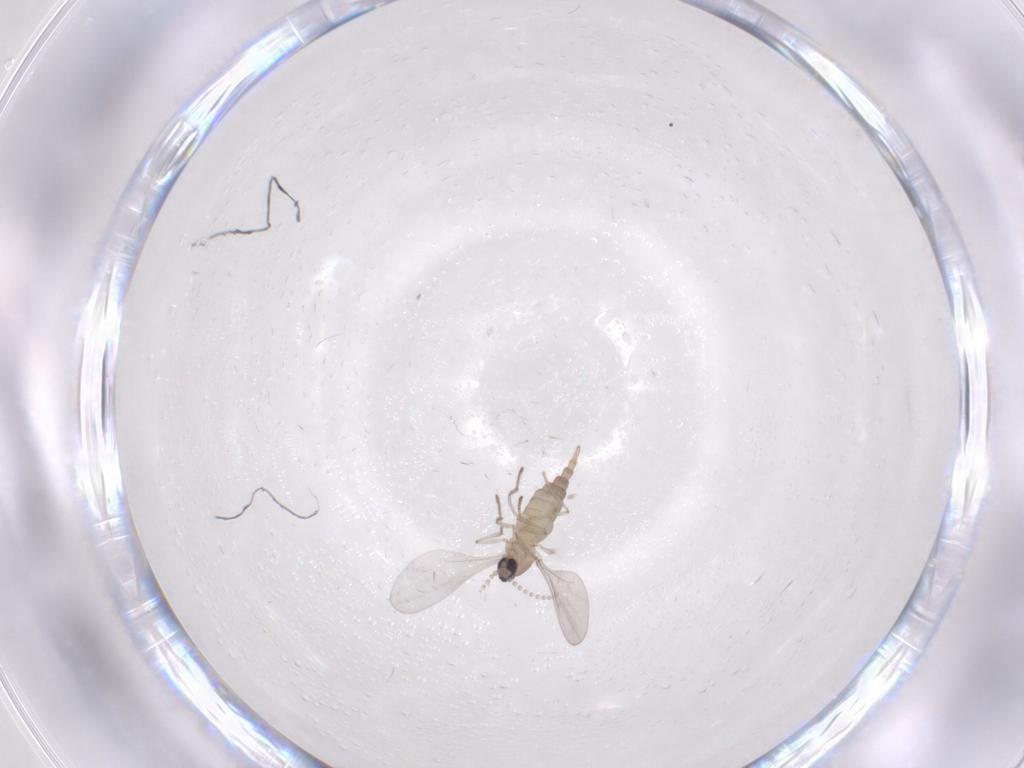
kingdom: Animalia
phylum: Arthropoda
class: Insecta
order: Diptera
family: Cecidomyiidae
